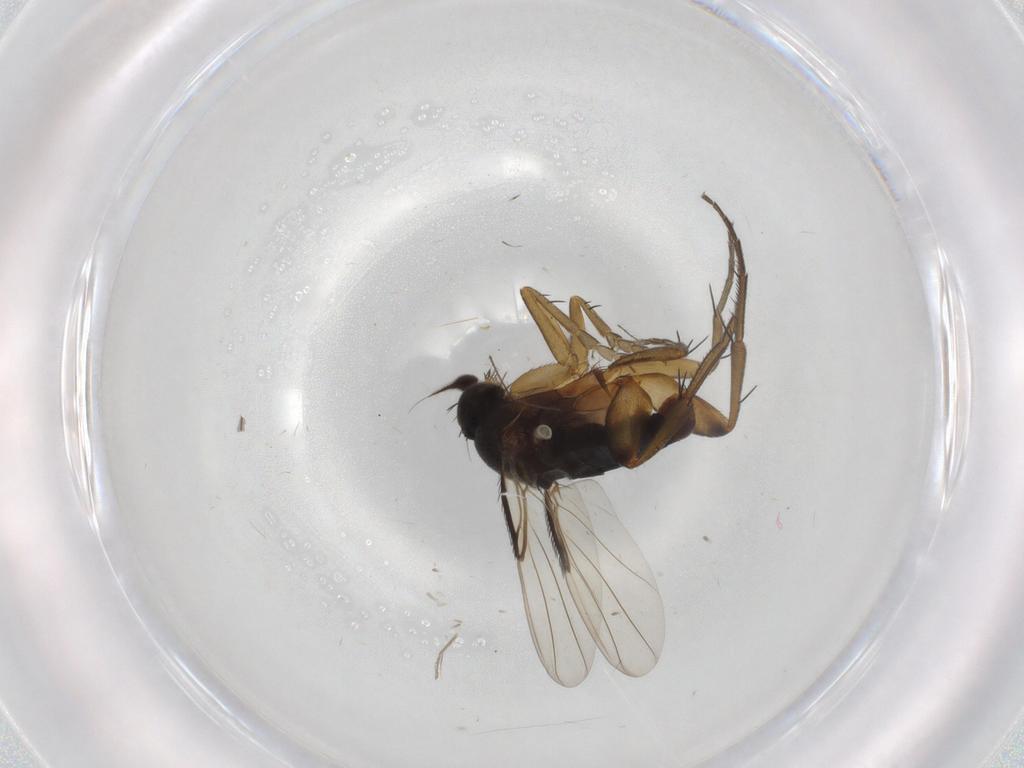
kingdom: Animalia
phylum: Arthropoda
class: Insecta
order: Diptera
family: Phoridae
